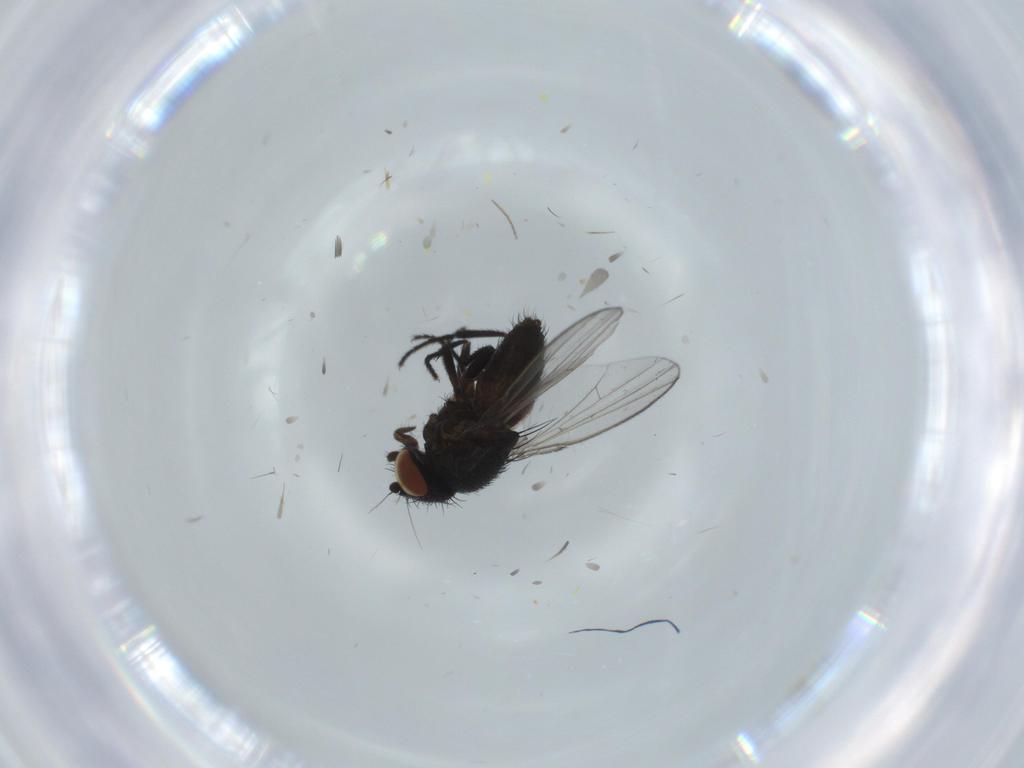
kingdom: Animalia
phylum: Arthropoda
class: Insecta
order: Diptera
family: Milichiidae
